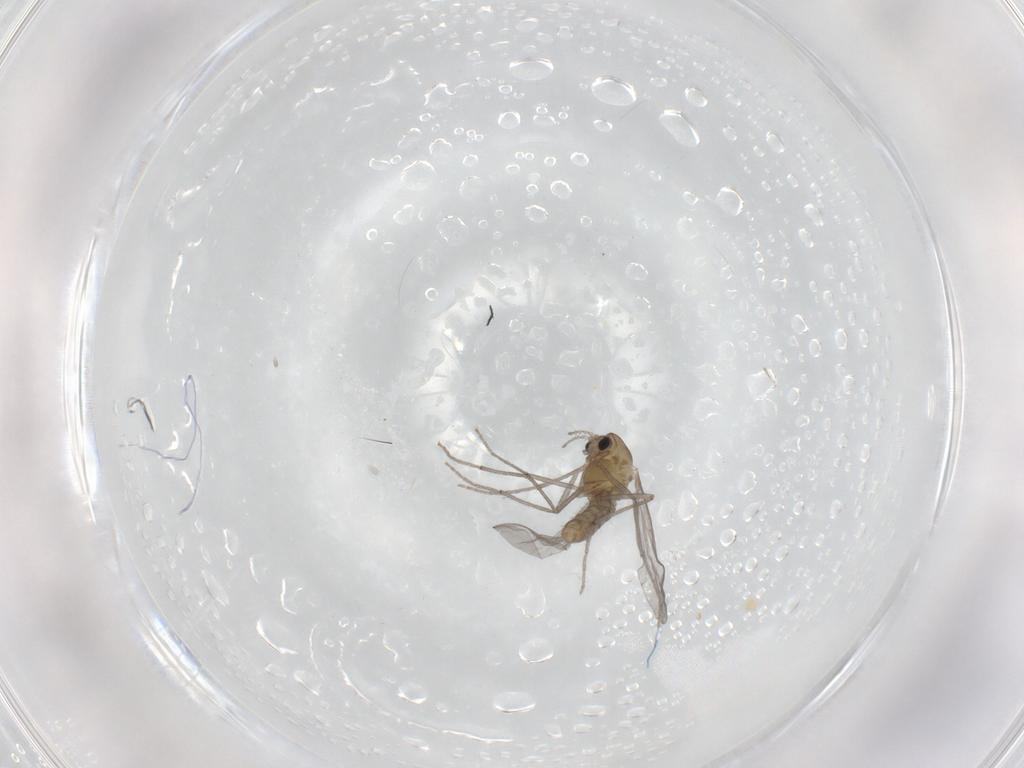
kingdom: Animalia
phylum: Arthropoda
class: Insecta
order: Diptera
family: Chironomidae
